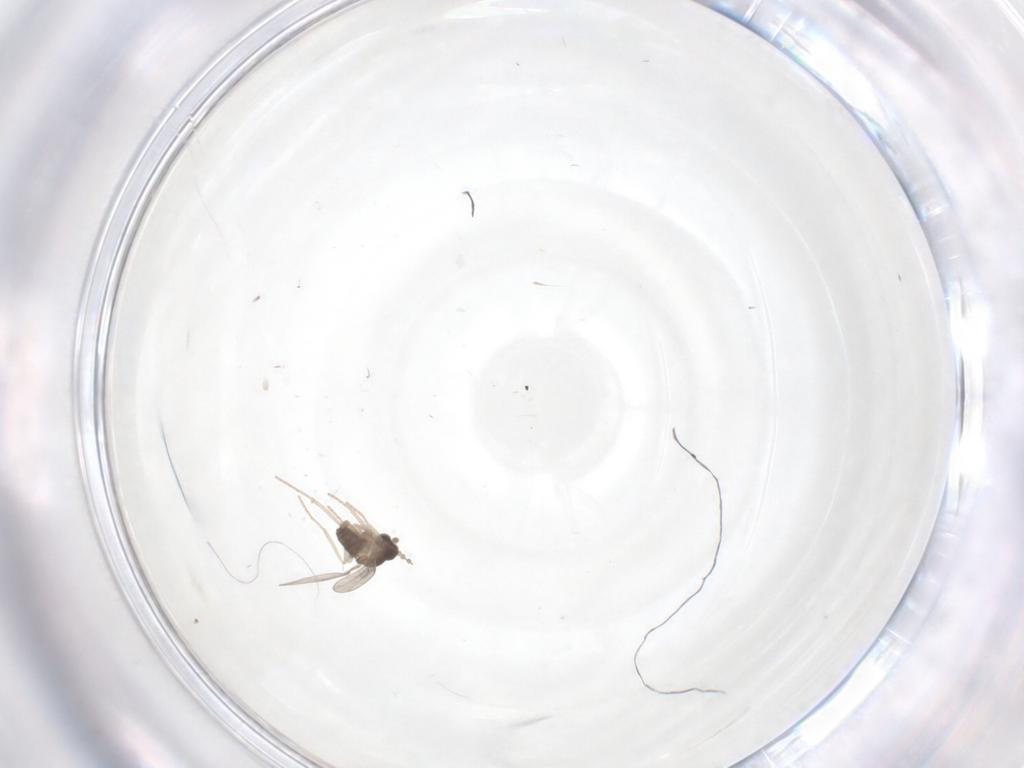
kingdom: Animalia
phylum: Arthropoda
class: Insecta
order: Diptera
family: Cecidomyiidae
